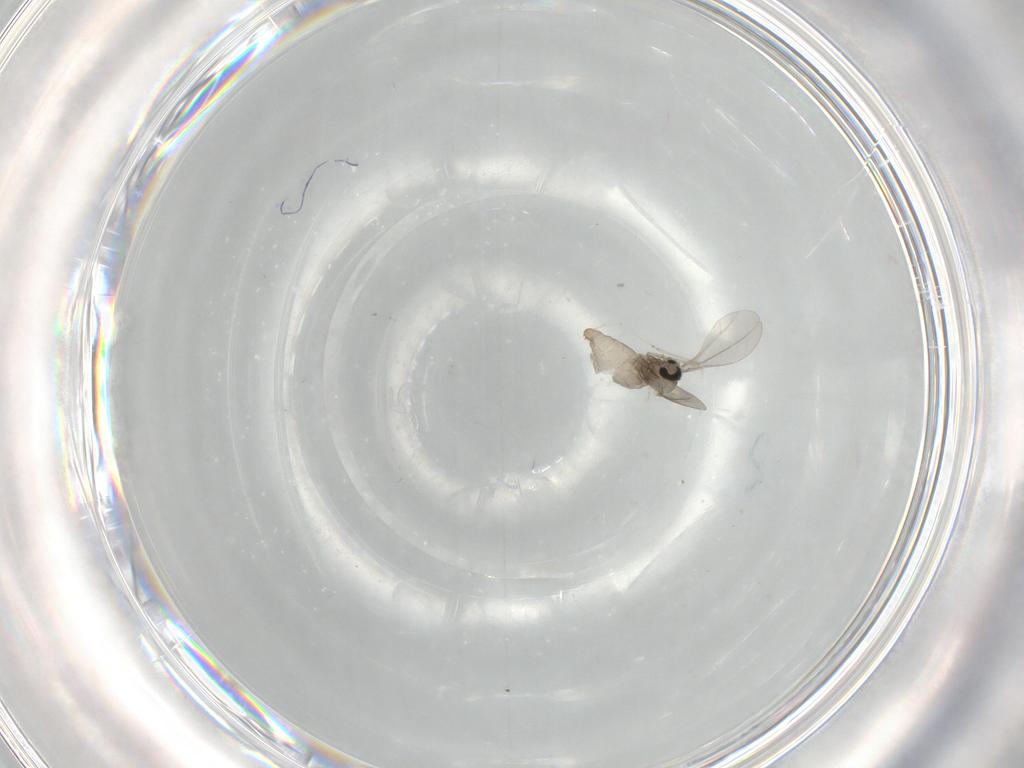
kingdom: Animalia
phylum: Arthropoda
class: Insecta
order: Diptera
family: Cecidomyiidae
